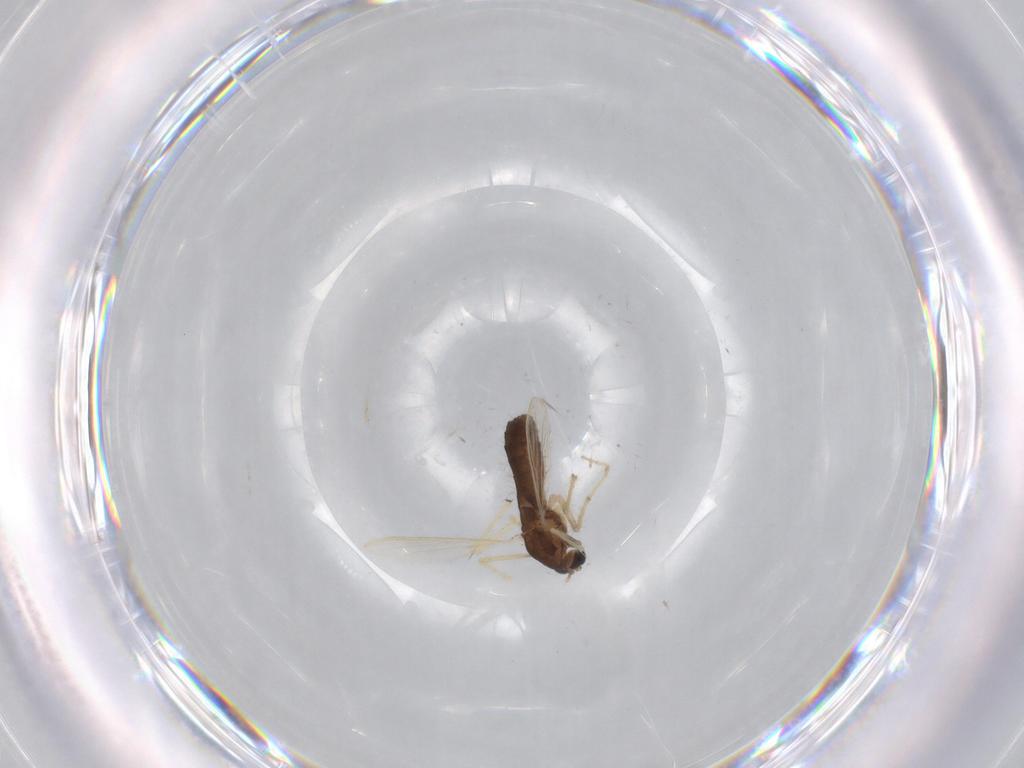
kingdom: Animalia
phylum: Arthropoda
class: Insecta
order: Diptera
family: Chironomidae
